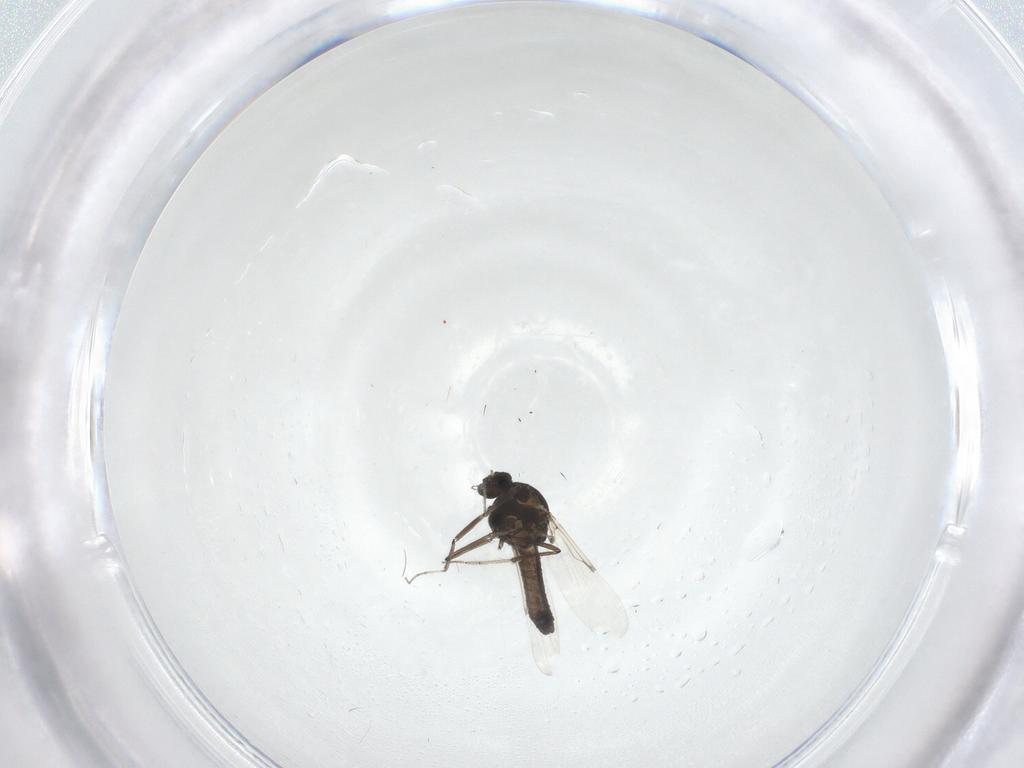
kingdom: Animalia
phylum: Arthropoda
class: Insecta
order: Diptera
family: Ceratopogonidae
